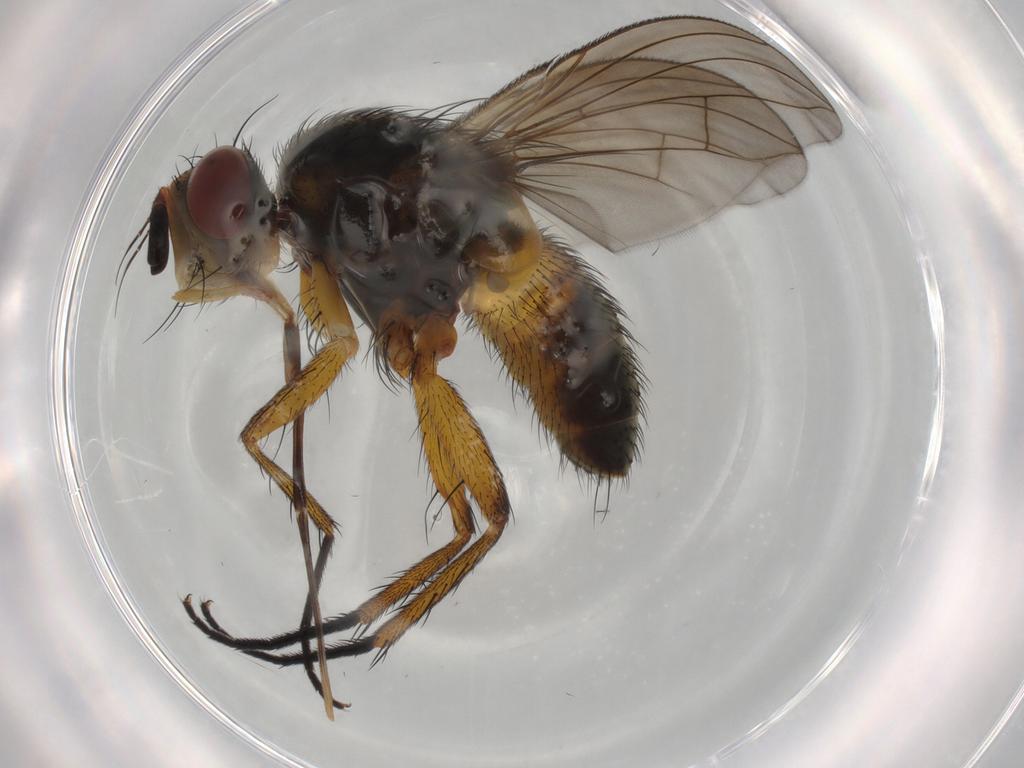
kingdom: Animalia
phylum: Arthropoda
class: Insecta
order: Diptera
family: Tachinidae
